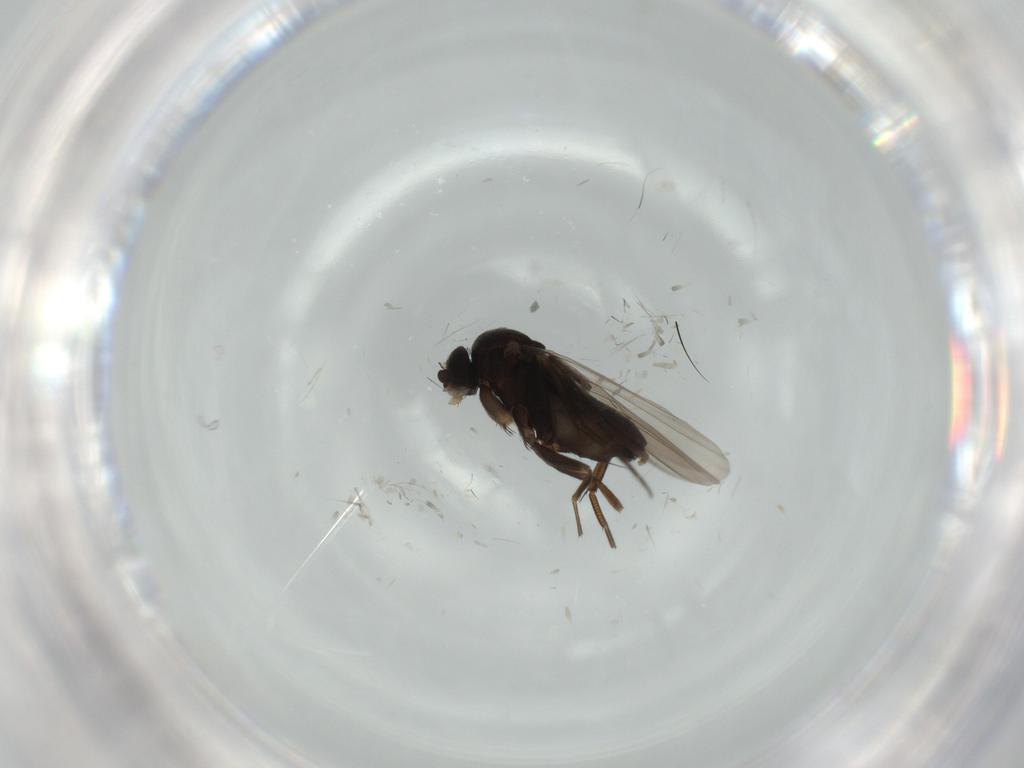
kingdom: Animalia
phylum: Arthropoda
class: Insecta
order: Diptera
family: Phoridae
